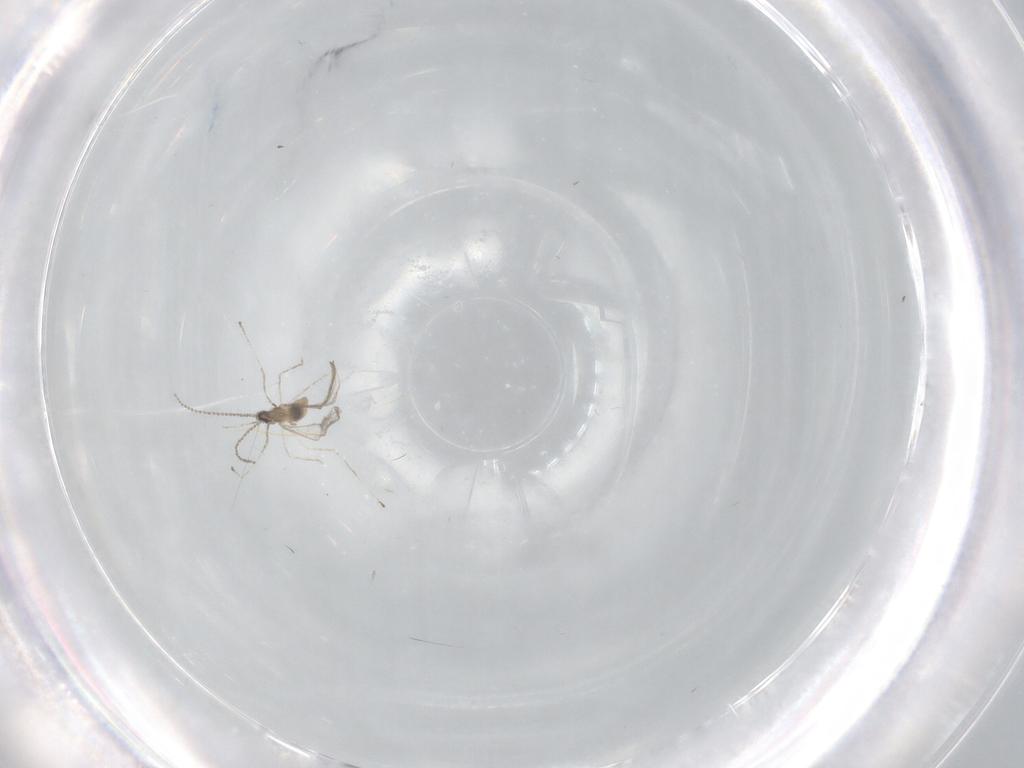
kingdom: Animalia
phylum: Arthropoda
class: Insecta
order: Diptera
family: Cecidomyiidae
